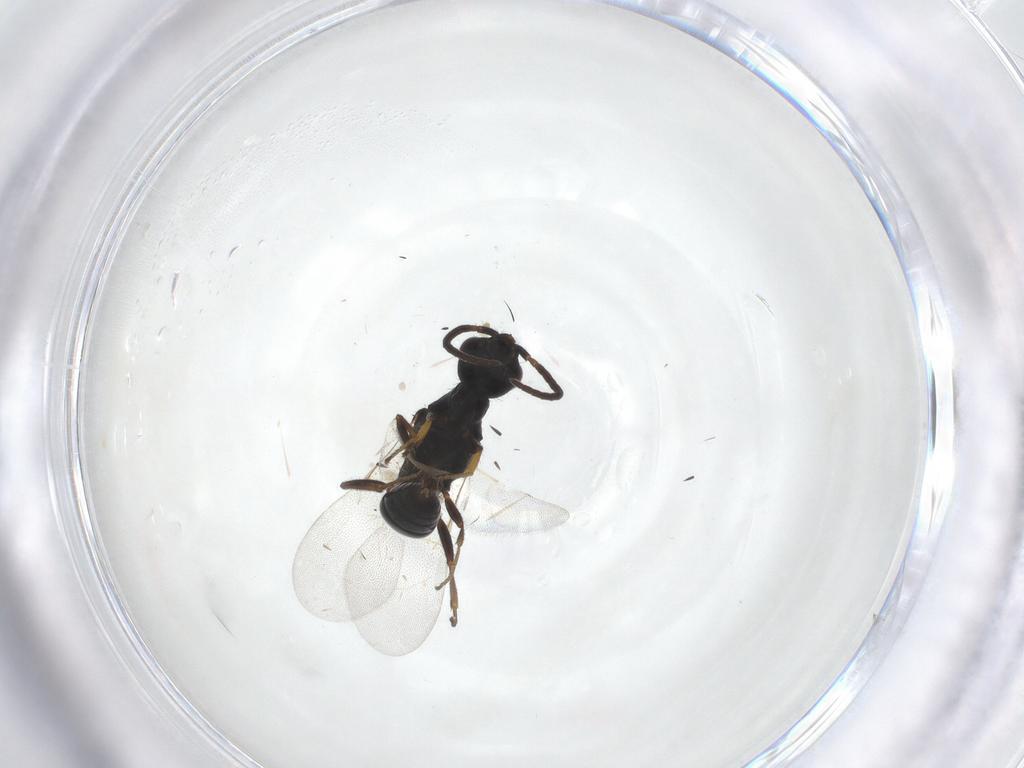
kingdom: Animalia
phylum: Arthropoda
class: Insecta
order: Hymenoptera
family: Bethylidae
